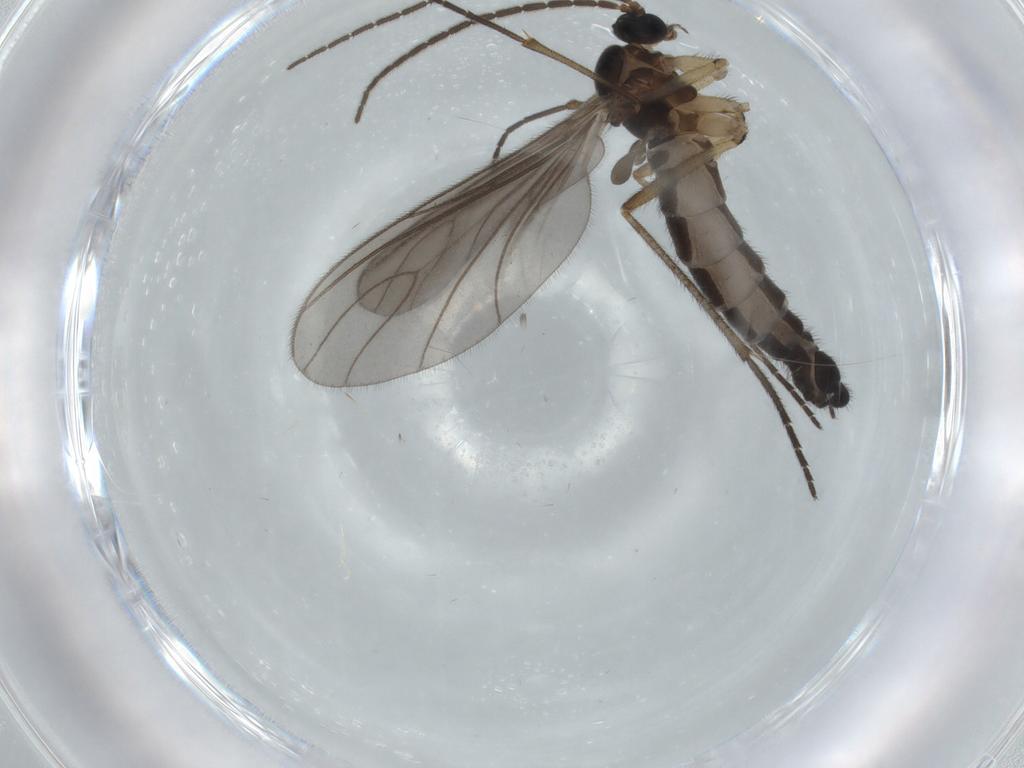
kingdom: Animalia
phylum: Arthropoda
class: Insecta
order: Diptera
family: Sciaridae
